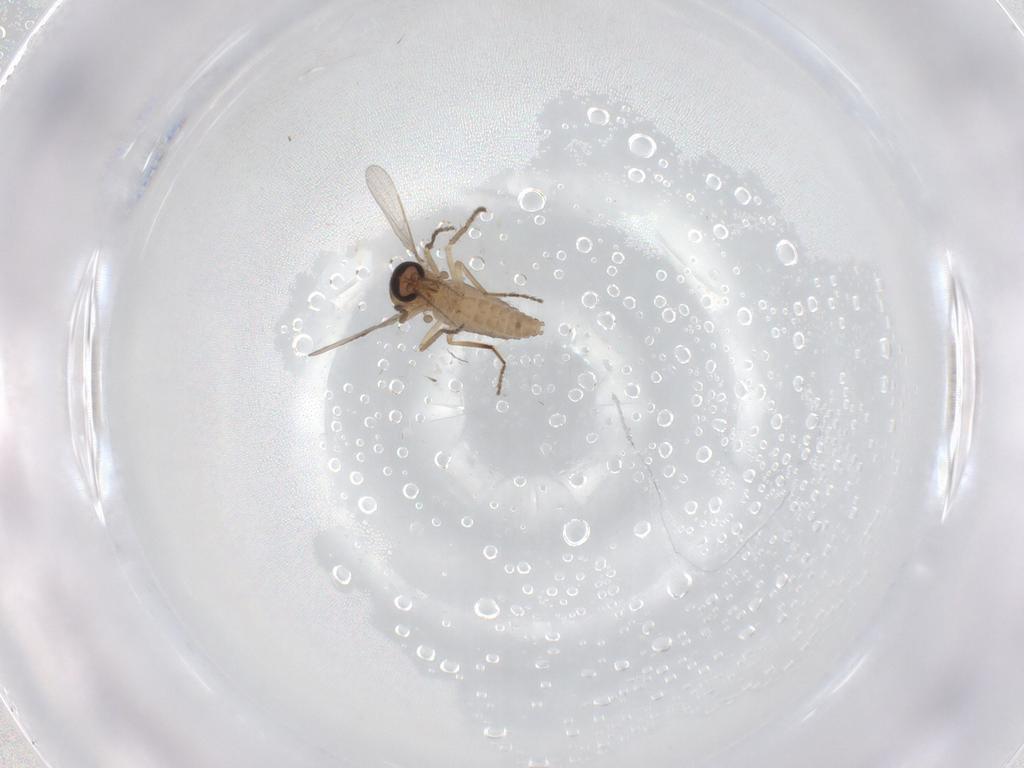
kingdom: Animalia
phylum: Arthropoda
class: Insecta
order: Diptera
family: Ceratopogonidae
